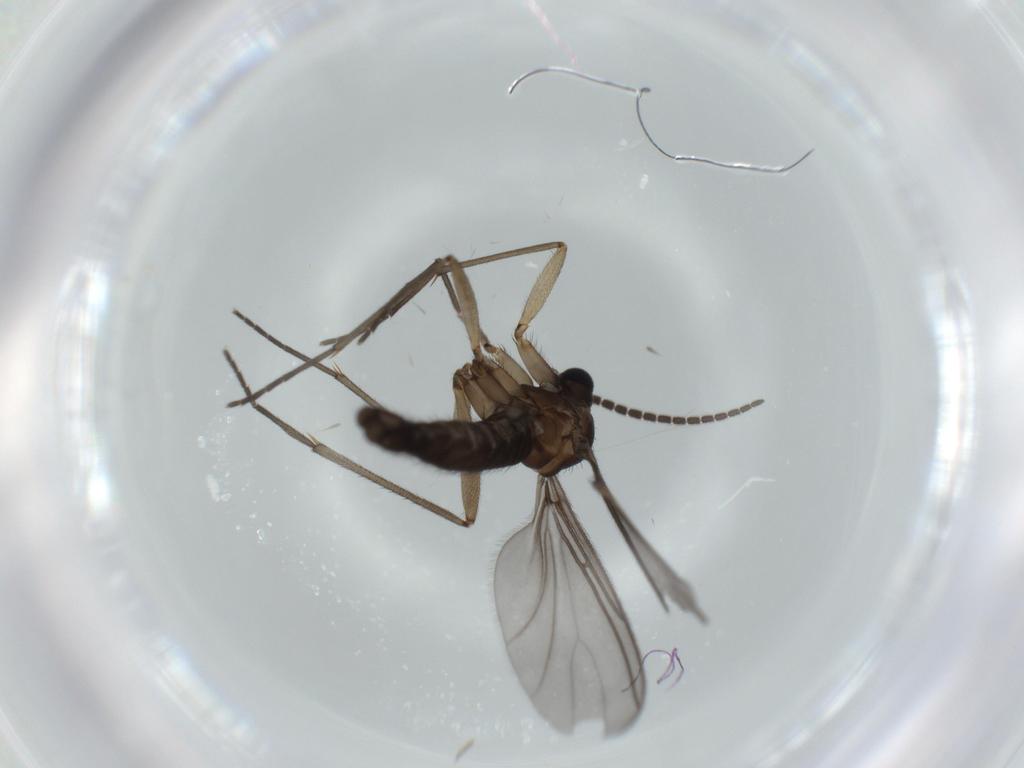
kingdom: Animalia
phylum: Arthropoda
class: Insecta
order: Diptera
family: Sciaridae
